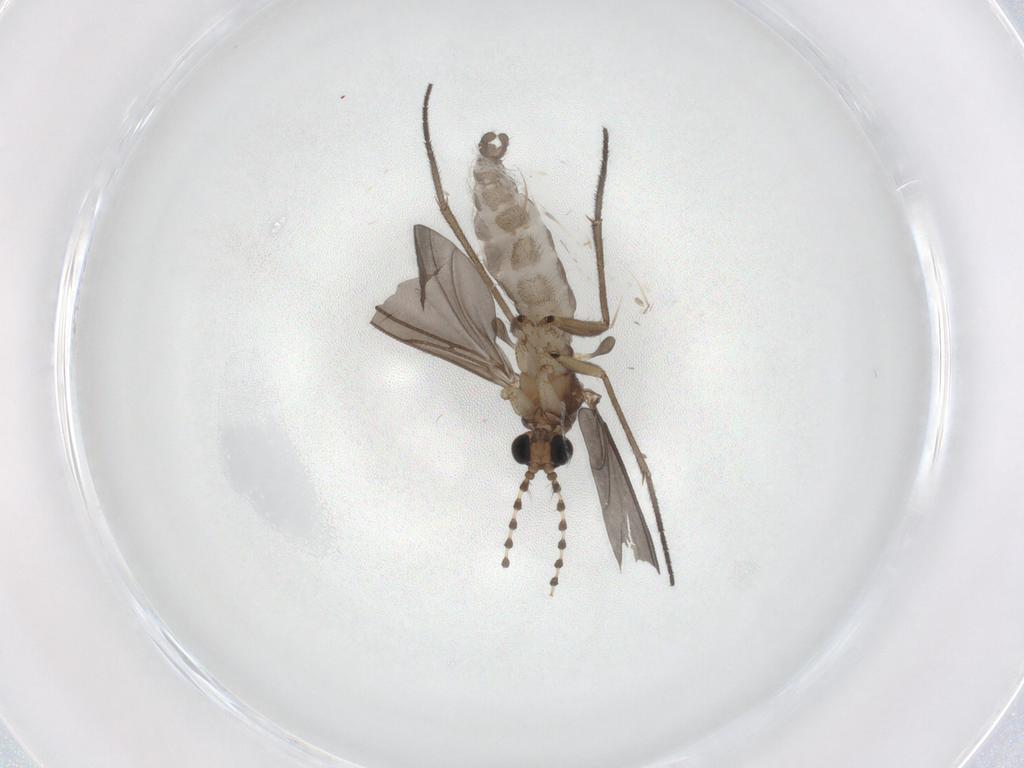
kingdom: Animalia
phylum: Arthropoda
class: Insecta
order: Diptera
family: Sciaridae
